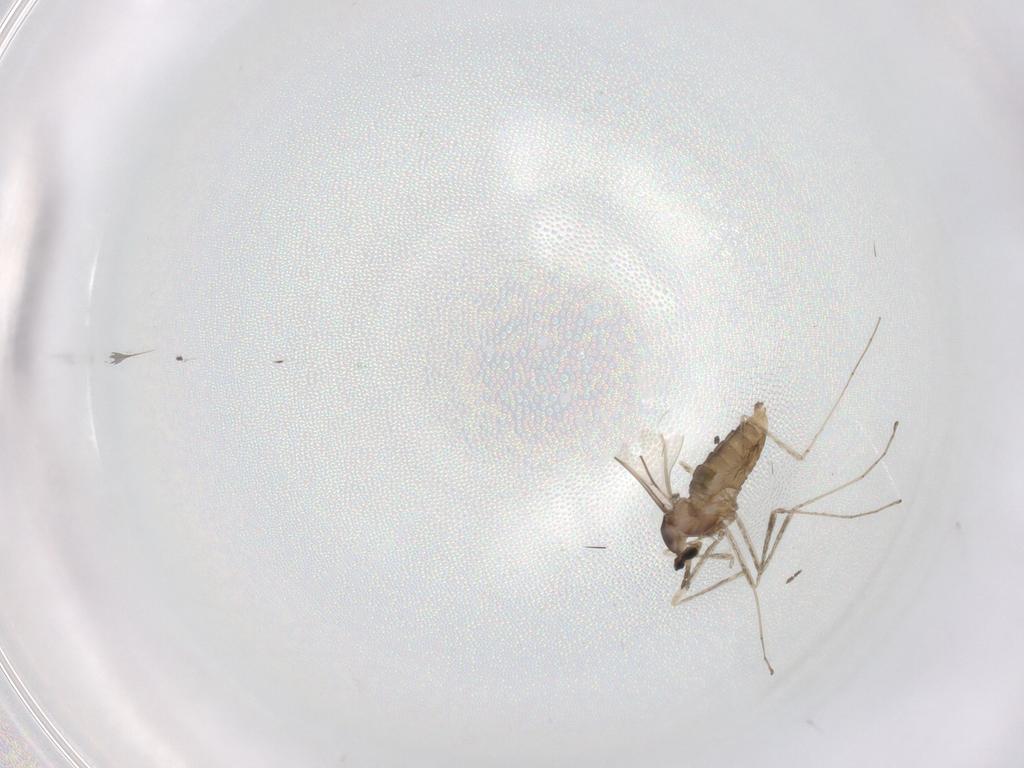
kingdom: Animalia
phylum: Arthropoda
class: Insecta
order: Diptera
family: Cecidomyiidae
